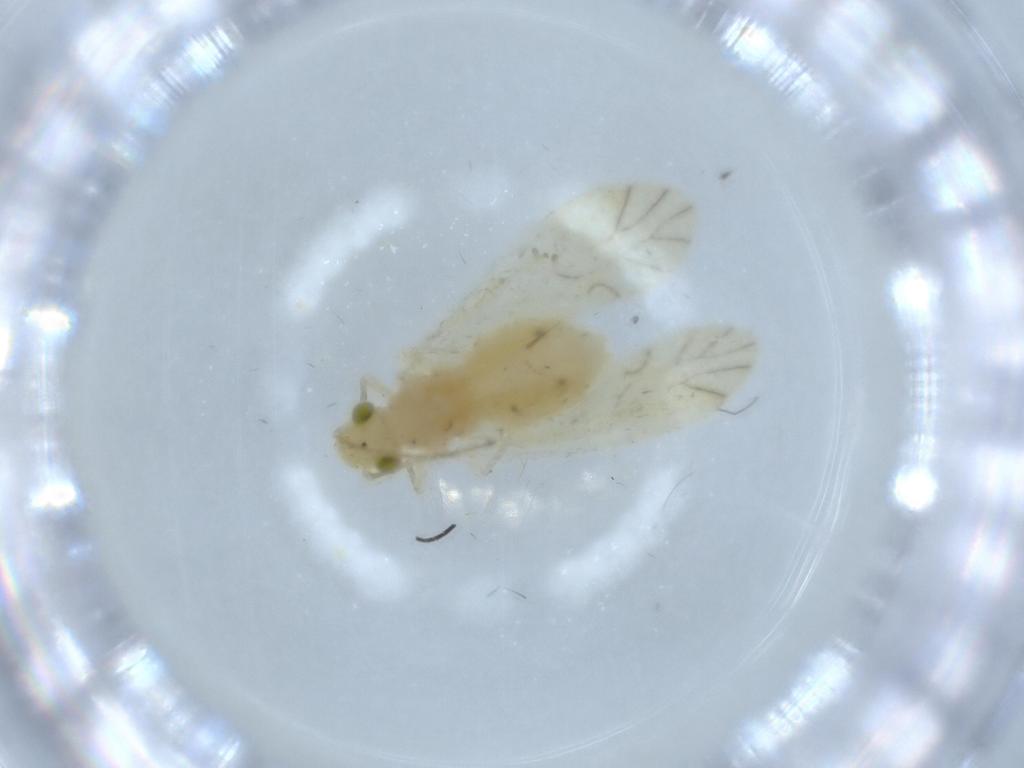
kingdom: Animalia
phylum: Arthropoda
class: Insecta
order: Psocodea
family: Caeciliusidae
